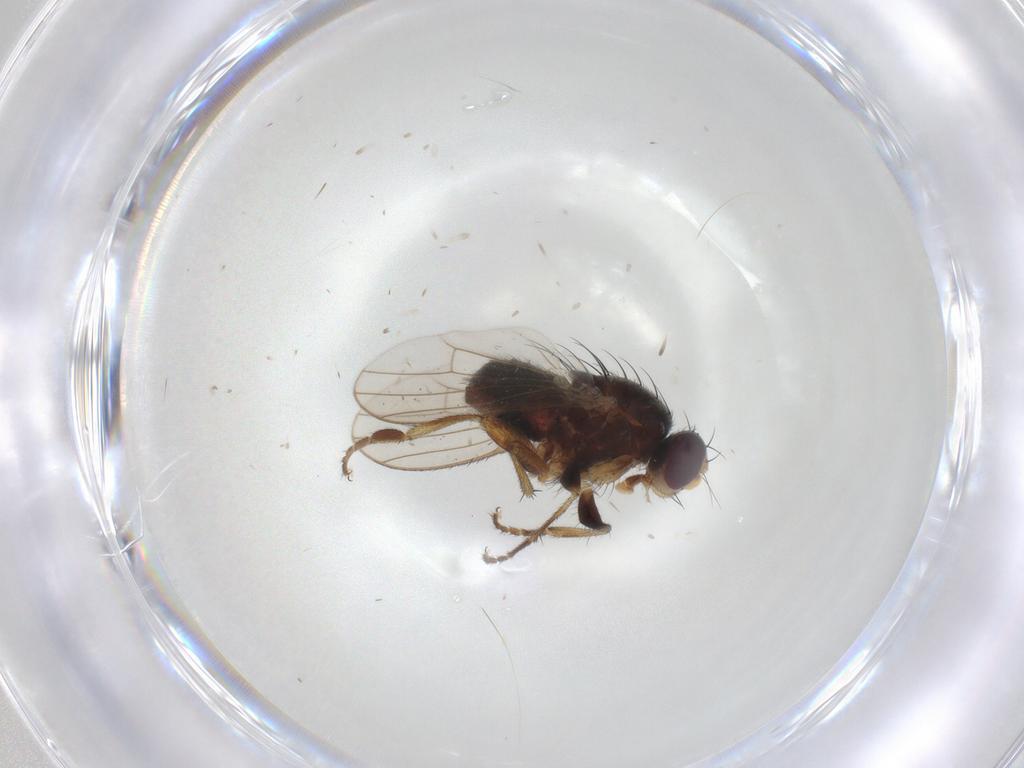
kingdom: Animalia
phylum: Arthropoda
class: Insecta
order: Diptera
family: Heleomyzidae
